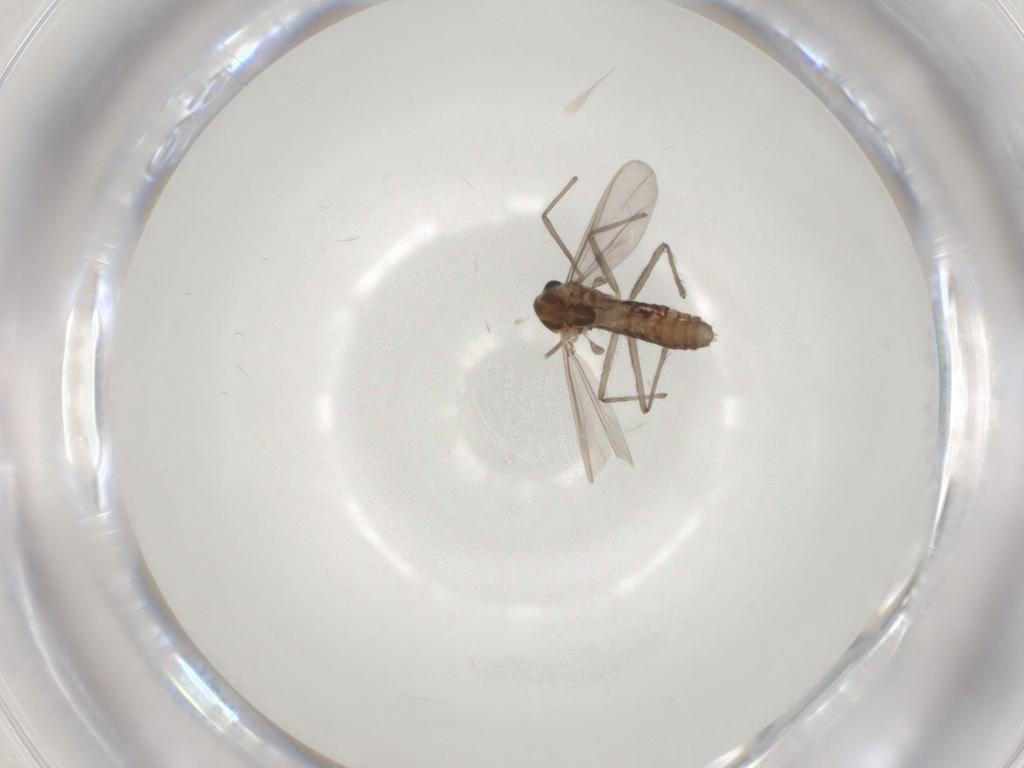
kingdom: Animalia
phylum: Arthropoda
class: Insecta
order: Diptera
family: Chironomidae
